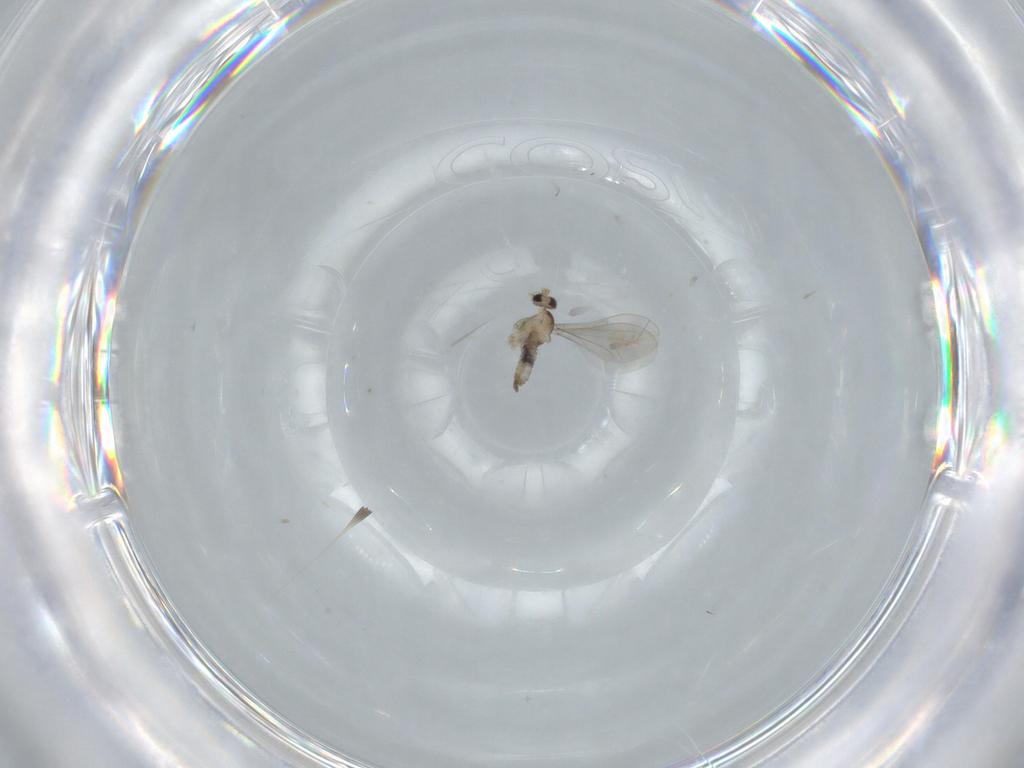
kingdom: Animalia
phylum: Arthropoda
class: Insecta
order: Diptera
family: Cecidomyiidae
